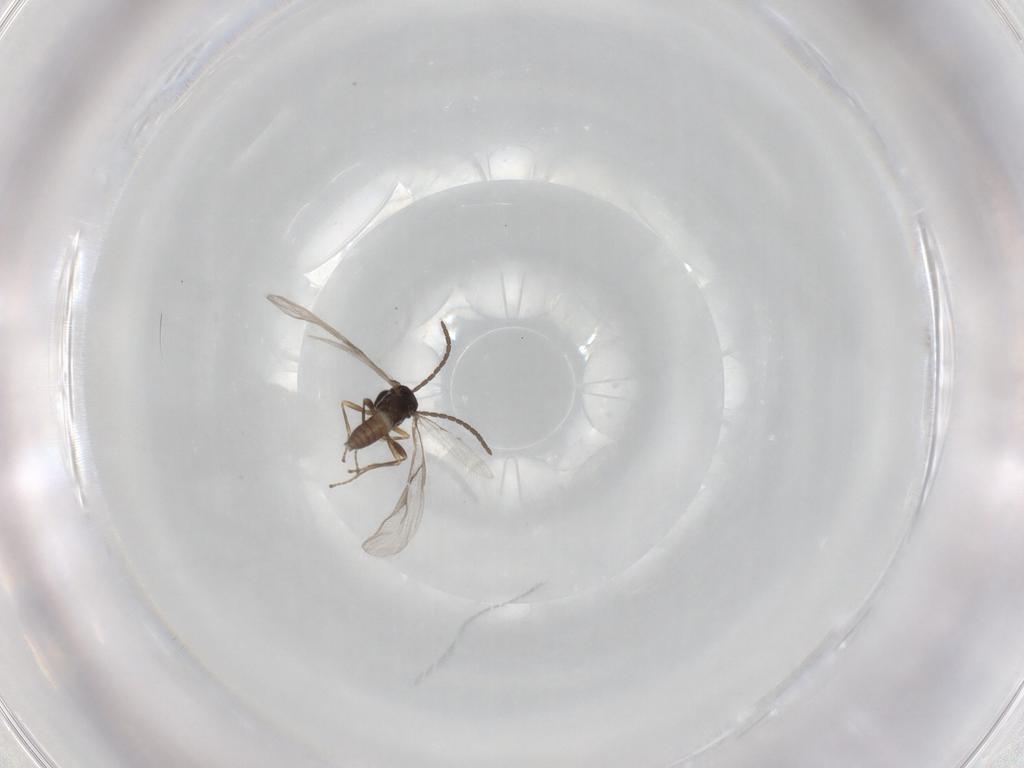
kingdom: Animalia
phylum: Arthropoda
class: Insecta
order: Hymenoptera
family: Braconidae
